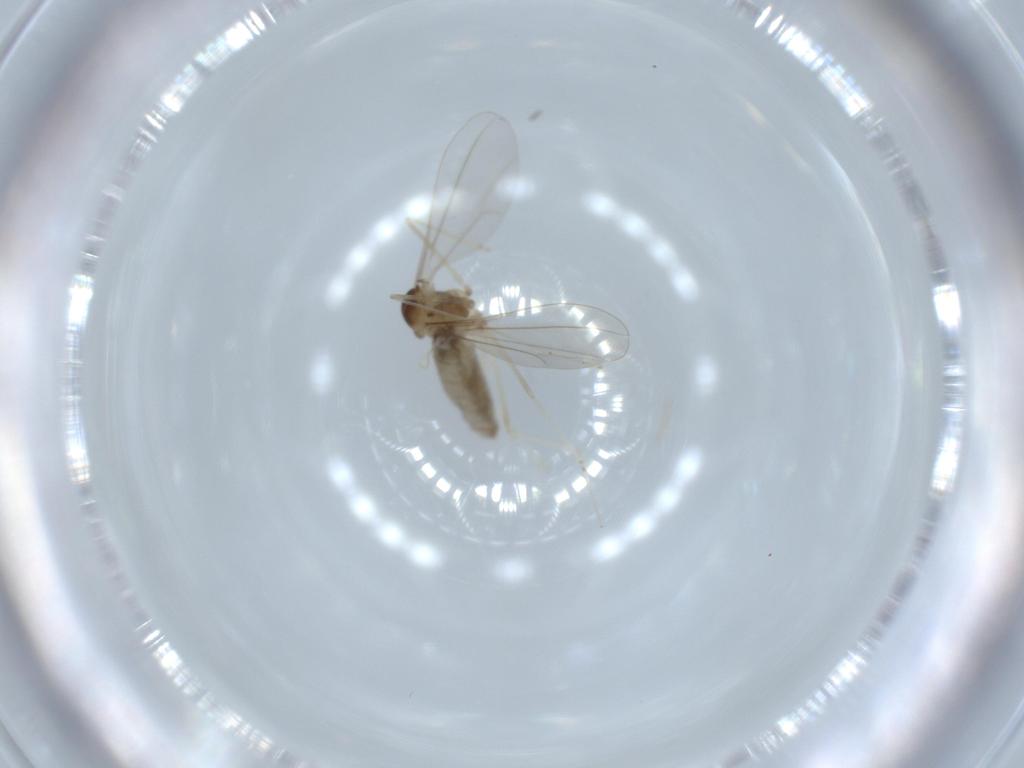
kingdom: Animalia
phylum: Arthropoda
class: Insecta
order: Diptera
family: Cecidomyiidae
